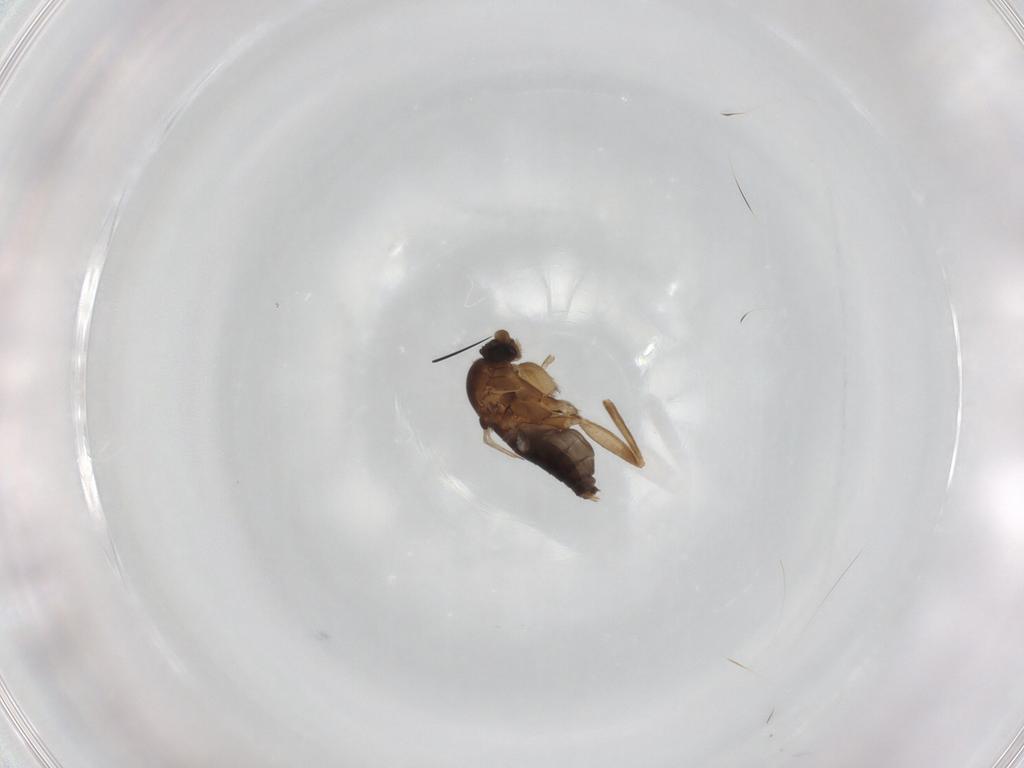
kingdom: Animalia
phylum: Arthropoda
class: Insecta
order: Diptera
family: Phoridae
